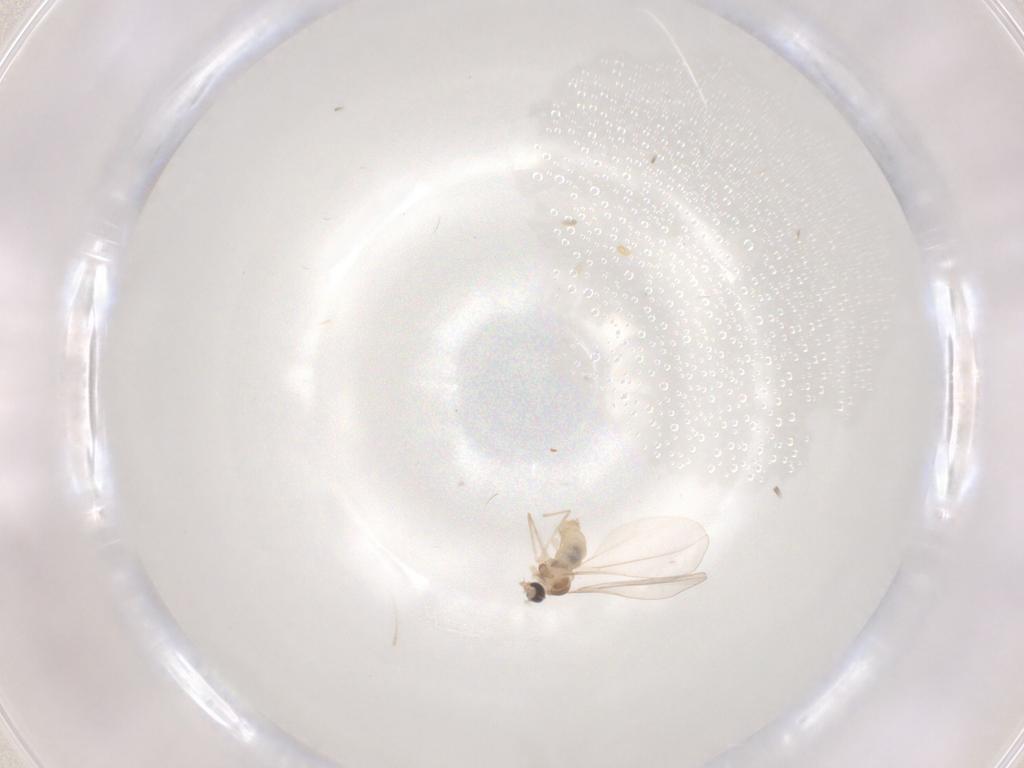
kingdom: Animalia
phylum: Arthropoda
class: Insecta
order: Diptera
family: Cecidomyiidae
